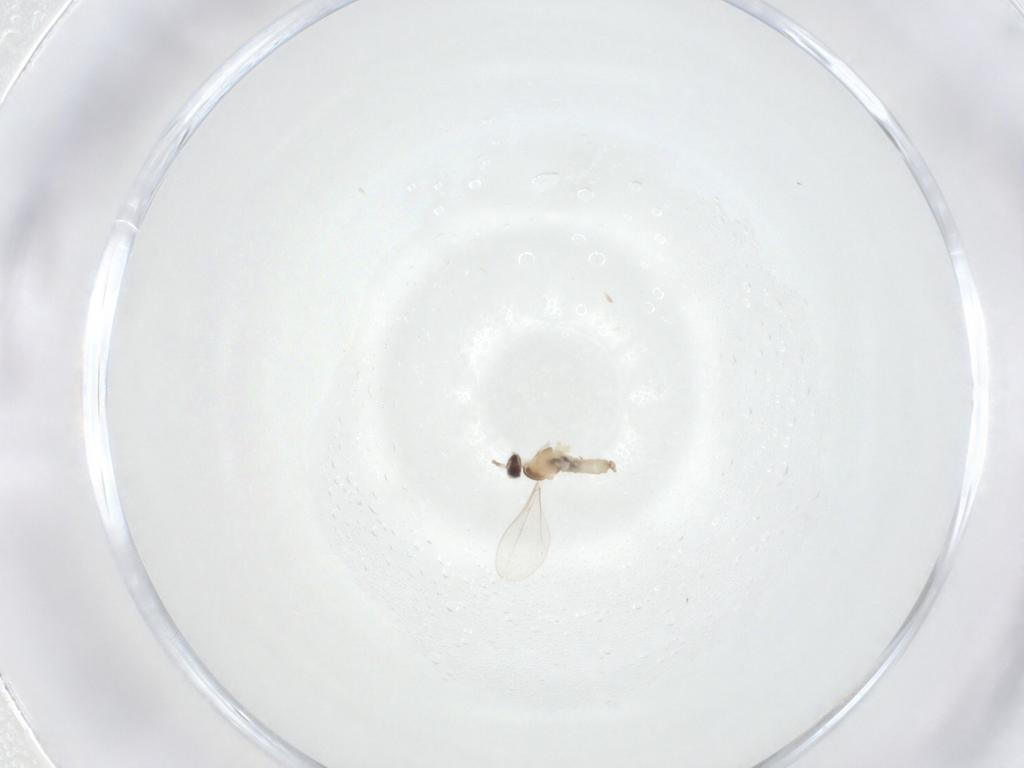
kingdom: Animalia
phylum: Arthropoda
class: Insecta
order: Diptera
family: Cecidomyiidae
